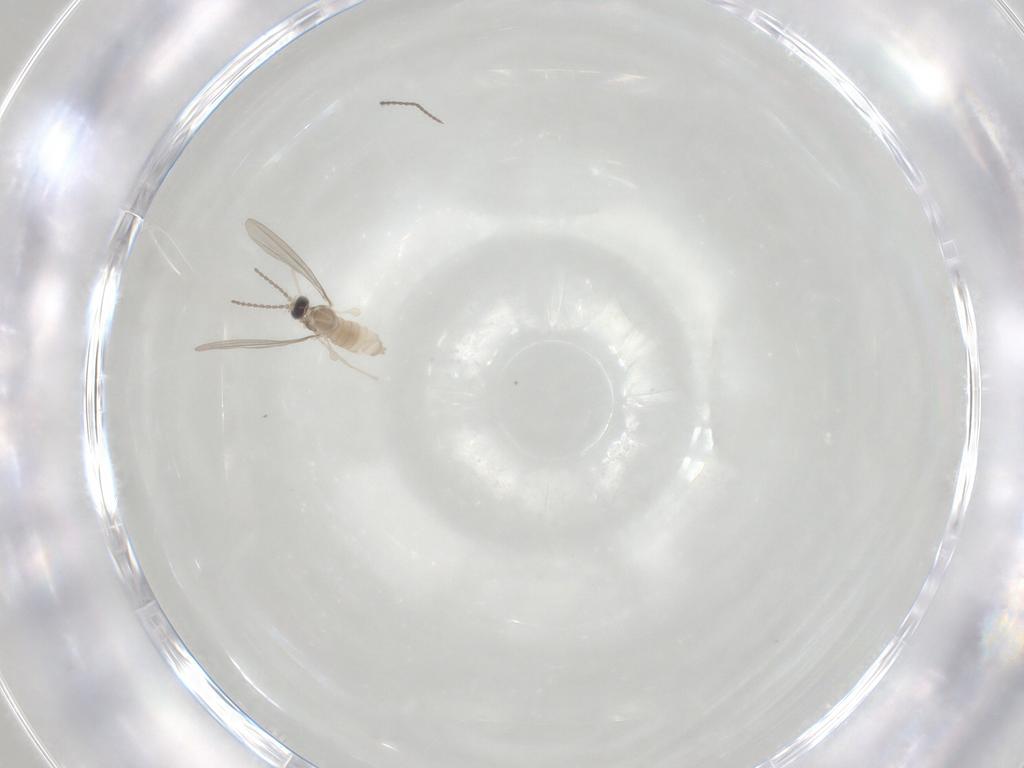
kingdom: Animalia
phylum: Arthropoda
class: Insecta
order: Diptera
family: Cecidomyiidae
